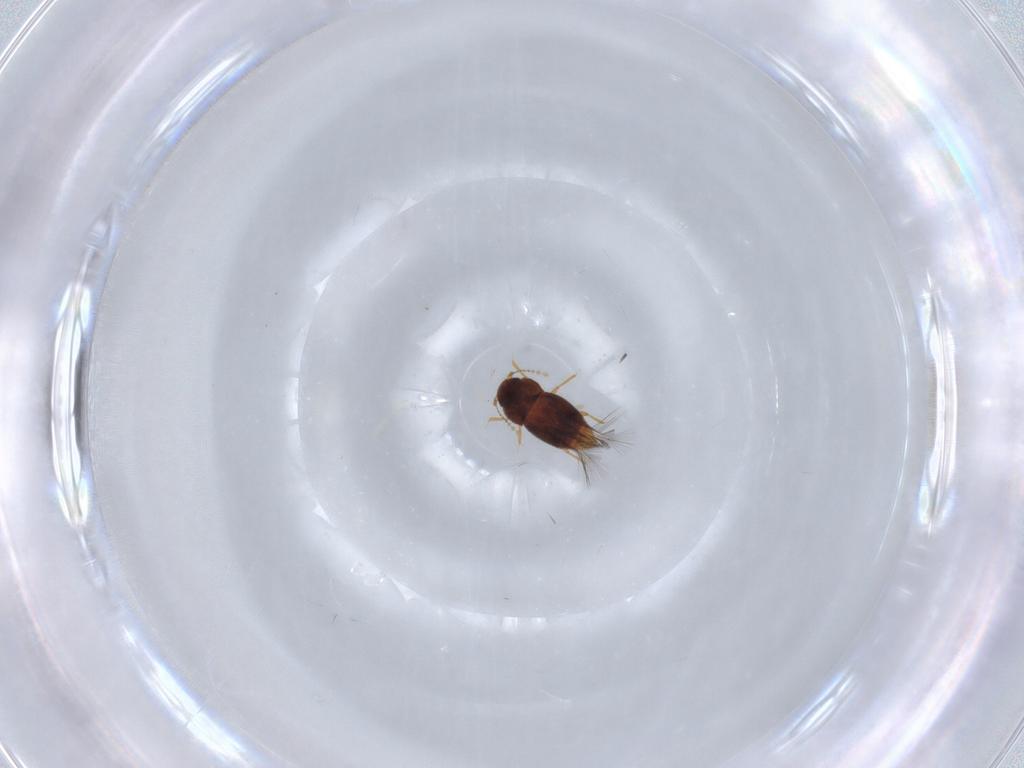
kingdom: Animalia
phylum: Arthropoda
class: Insecta
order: Coleoptera
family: Ptiliidae
